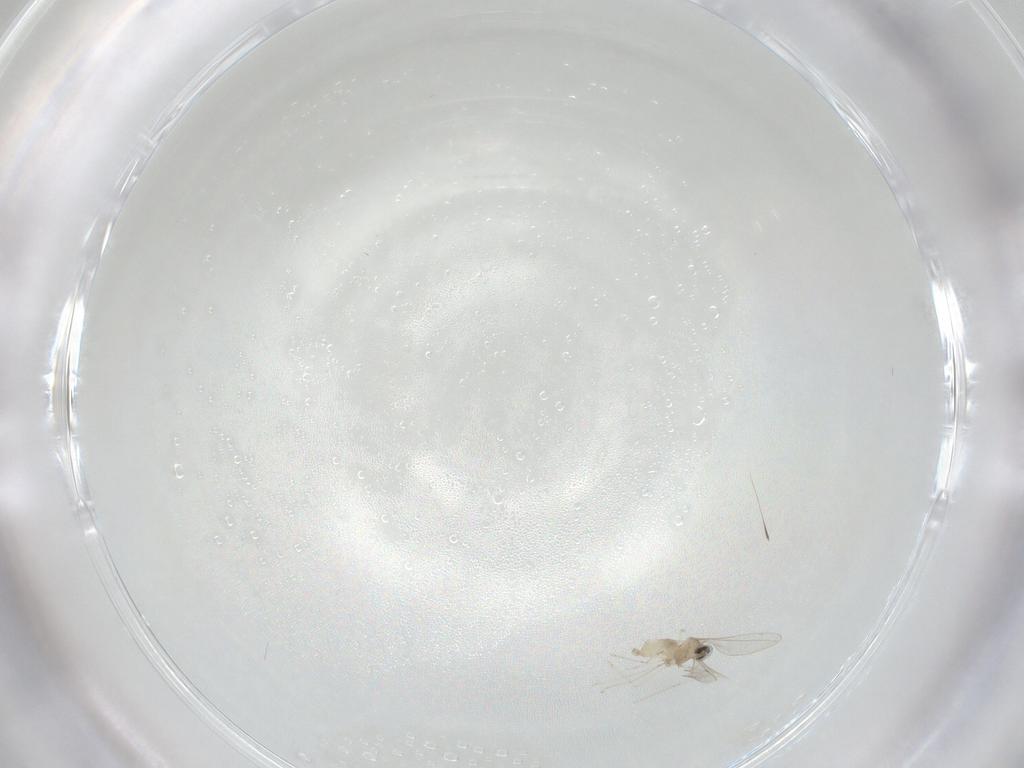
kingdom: Animalia
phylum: Arthropoda
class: Insecta
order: Diptera
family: Cecidomyiidae
